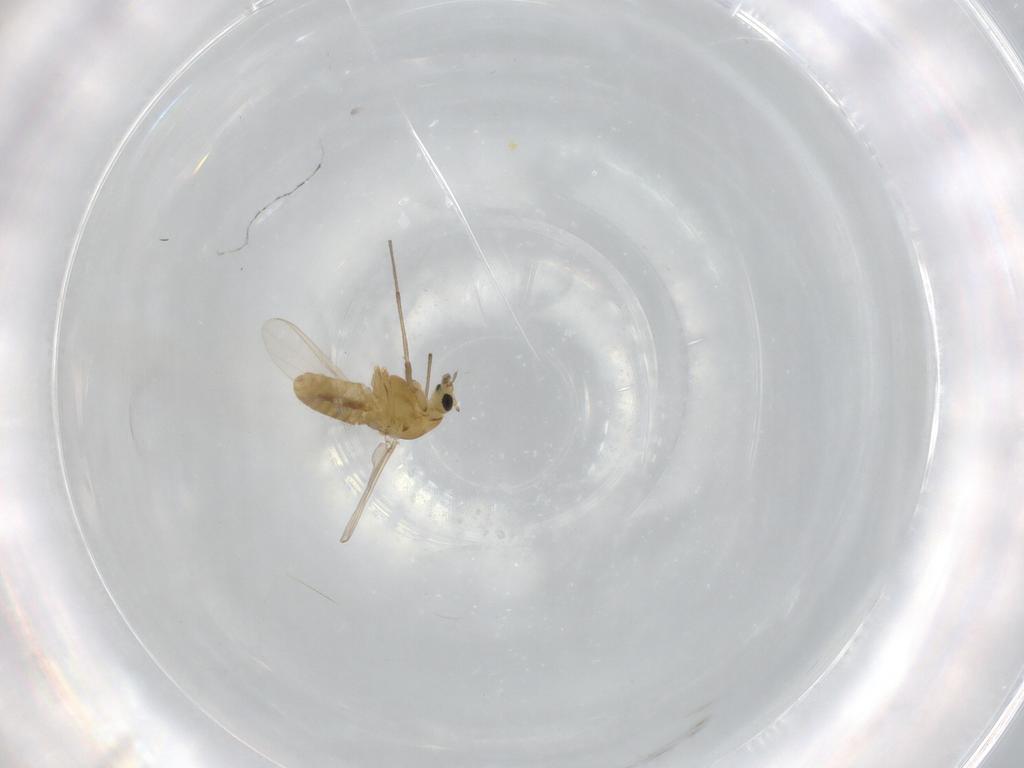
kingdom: Animalia
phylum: Arthropoda
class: Insecta
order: Diptera
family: Chironomidae
